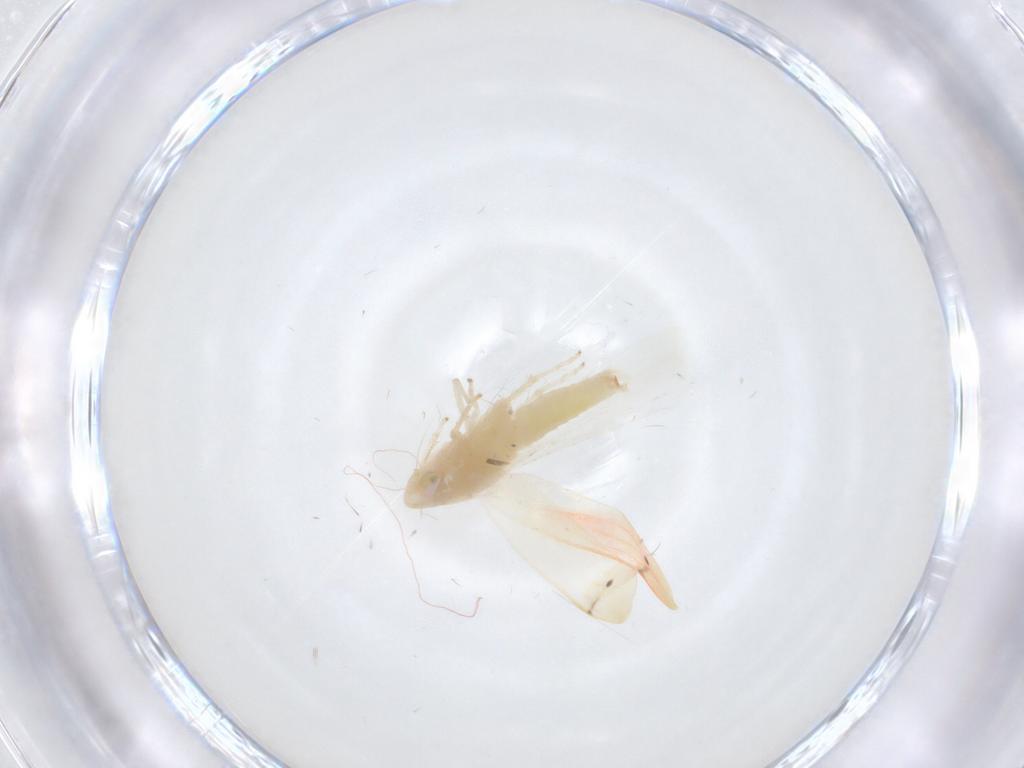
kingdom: Animalia
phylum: Arthropoda
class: Insecta
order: Hemiptera
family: Cicadellidae
